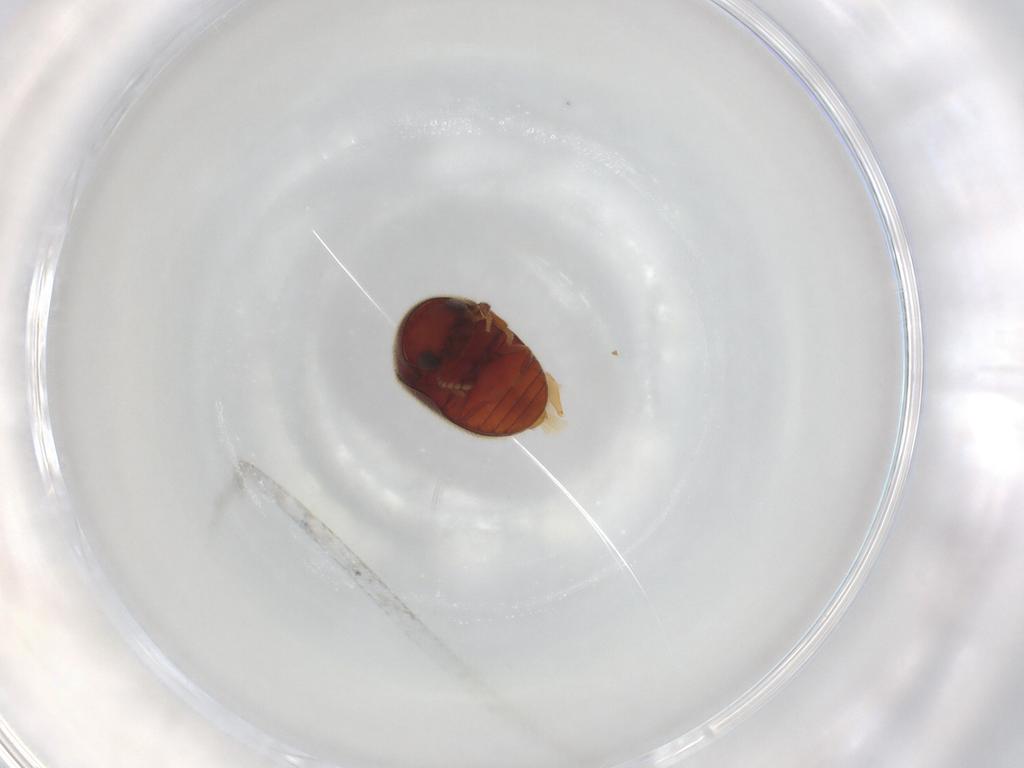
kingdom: Animalia
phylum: Arthropoda
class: Insecta
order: Coleoptera
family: Lampyridae
